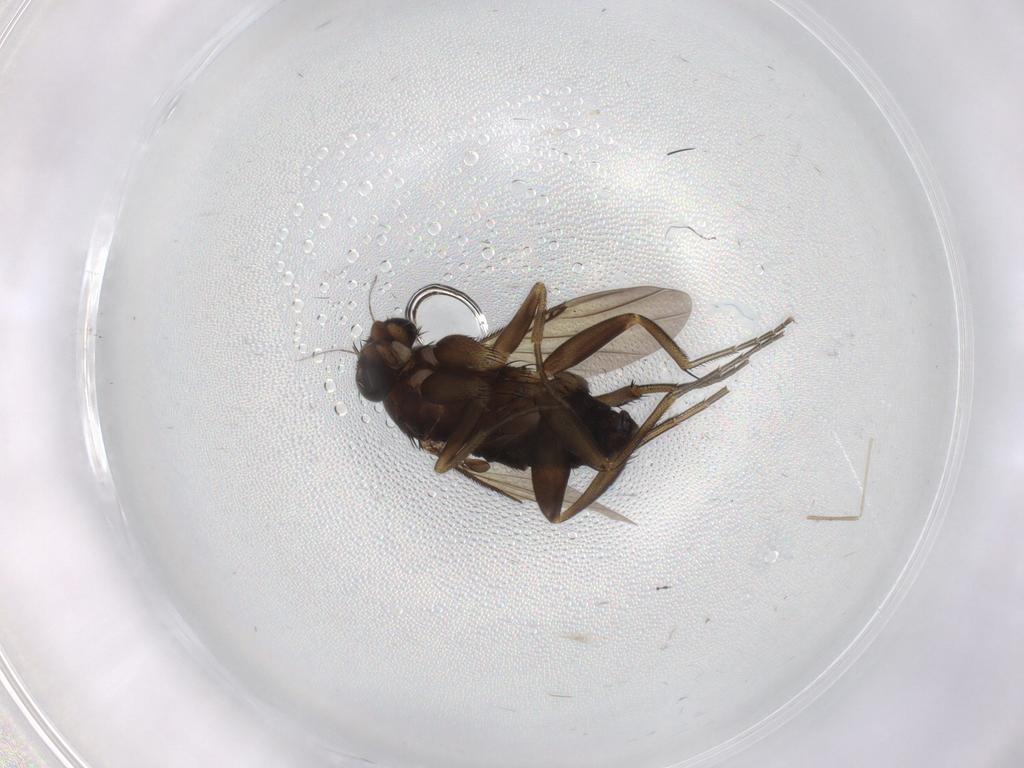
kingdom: Animalia
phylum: Arthropoda
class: Insecta
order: Diptera
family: Phoridae
